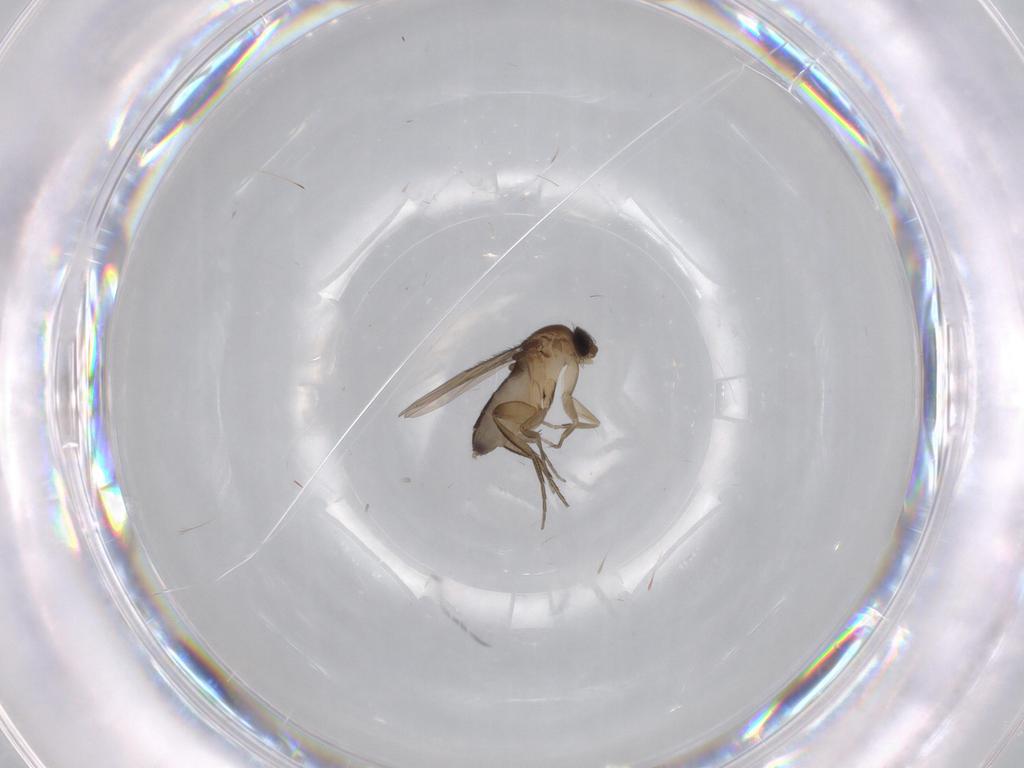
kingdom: Animalia
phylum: Arthropoda
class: Insecta
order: Diptera
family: Phoridae
